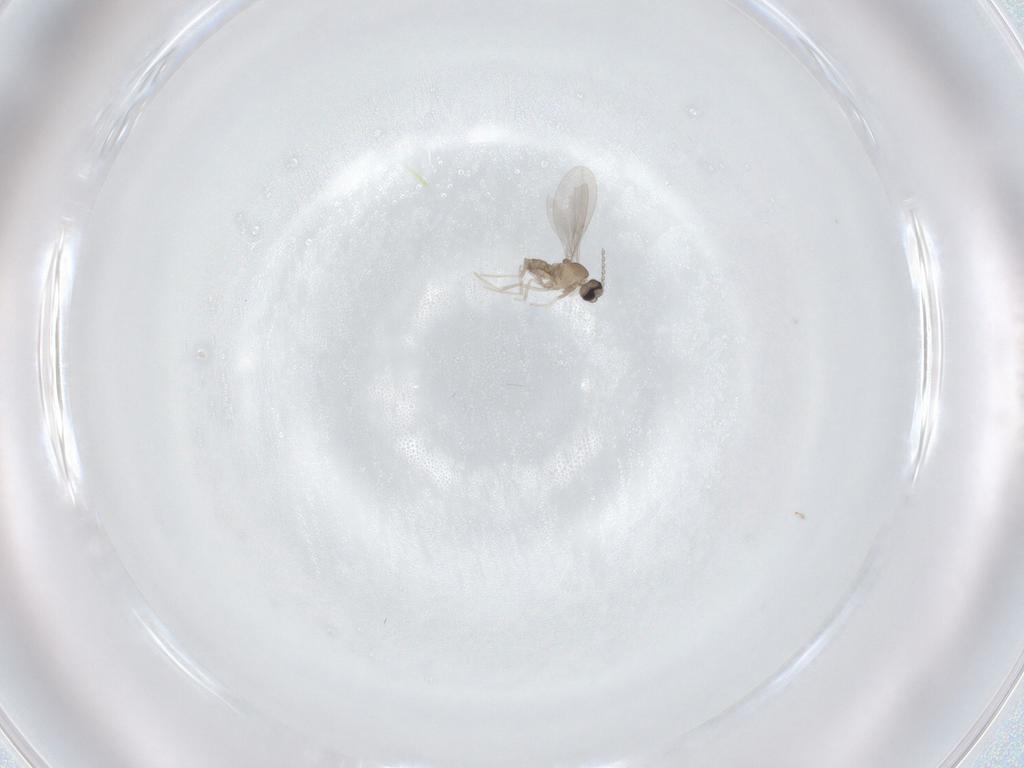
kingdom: Animalia
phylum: Arthropoda
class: Insecta
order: Diptera
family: Cecidomyiidae
